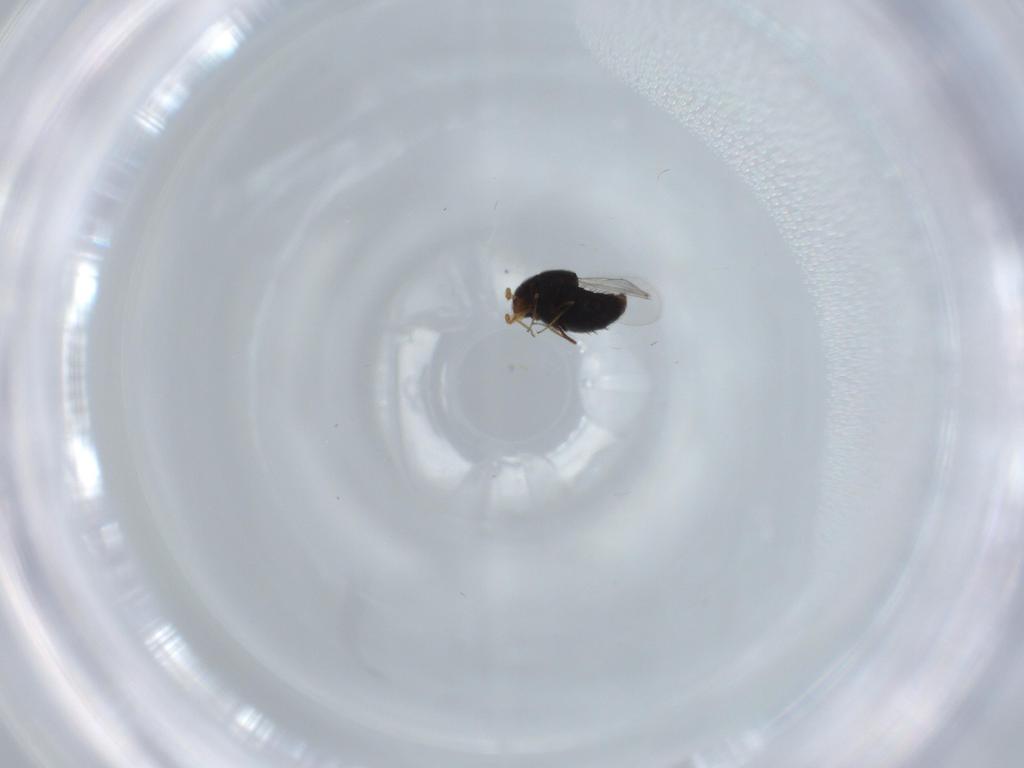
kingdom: Animalia
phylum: Arthropoda
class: Insecta
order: Coleoptera
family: Staphylinidae
